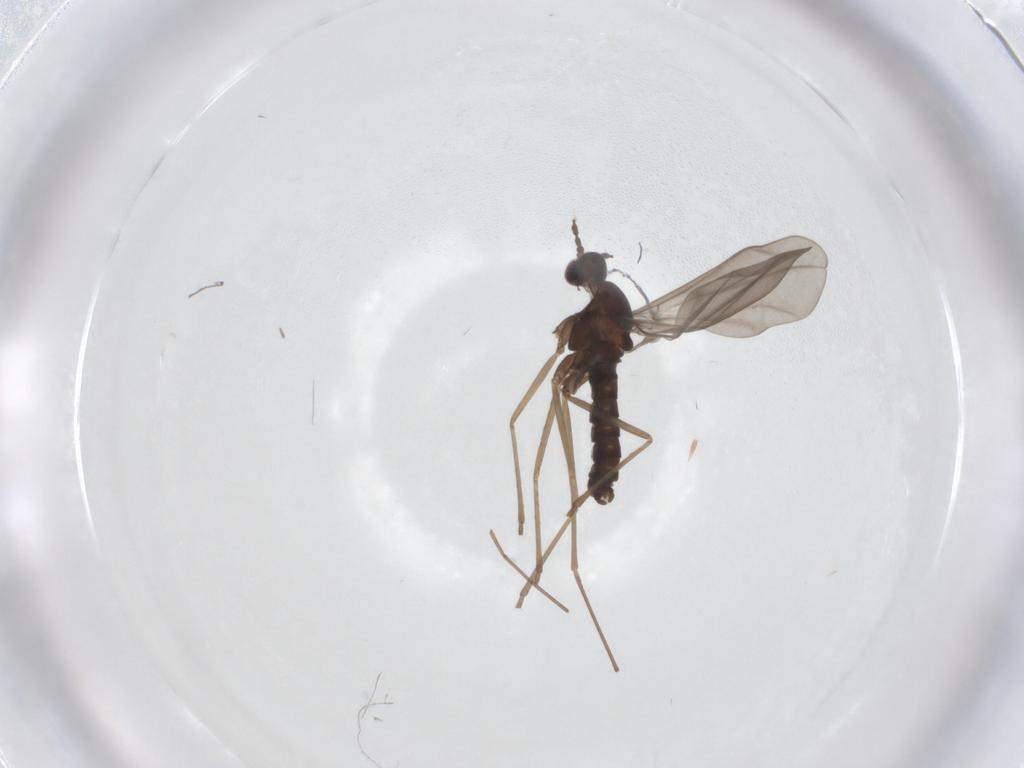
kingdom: Animalia
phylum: Arthropoda
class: Insecta
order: Diptera
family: Cecidomyiidae
